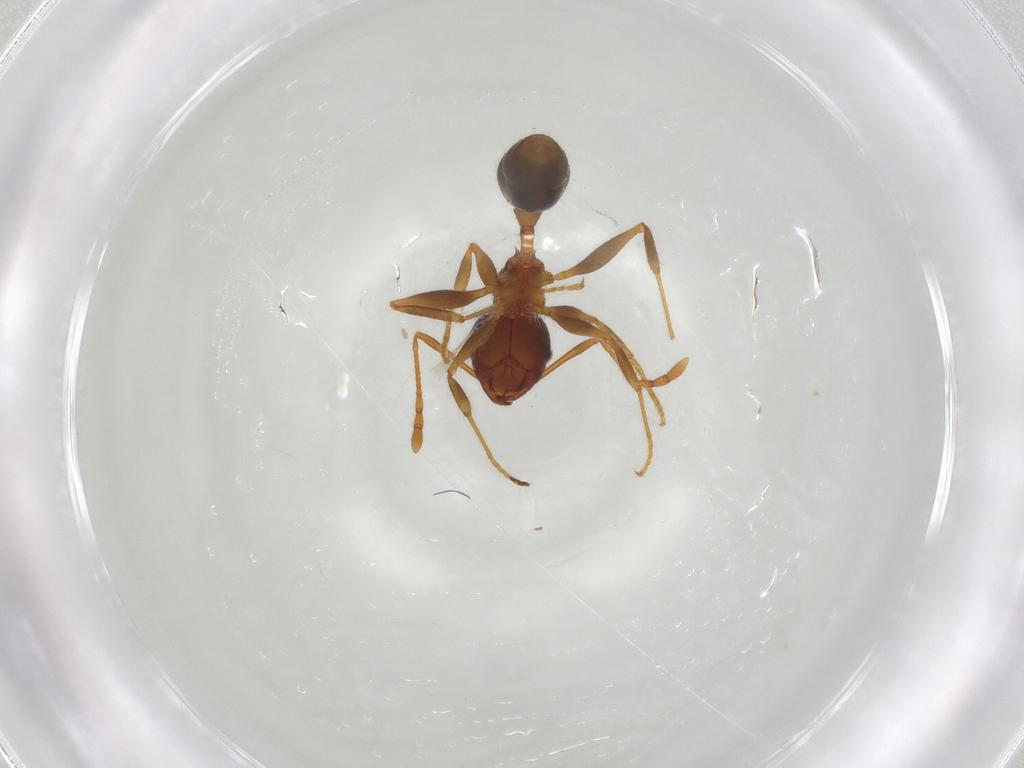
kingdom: Animalia
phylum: Arthropoda
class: Insecta
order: Hymenoptera
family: Formicidae
